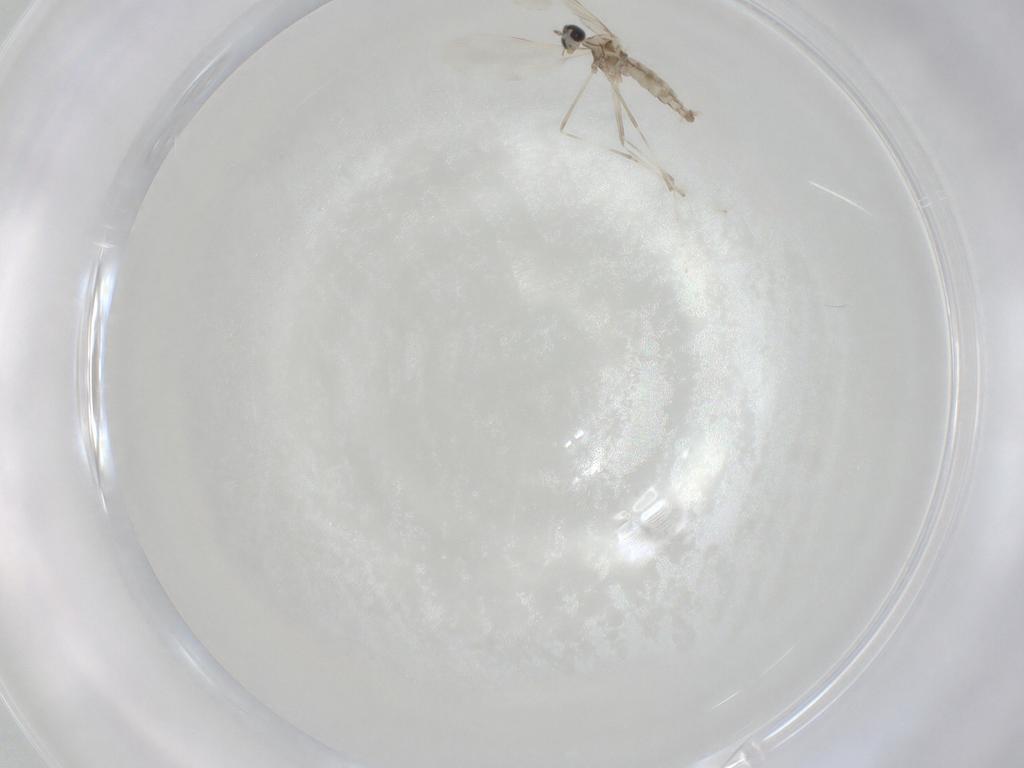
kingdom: Animalia
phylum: Arthropoda
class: Insecta
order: Diptera
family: Cecidomyiidae
